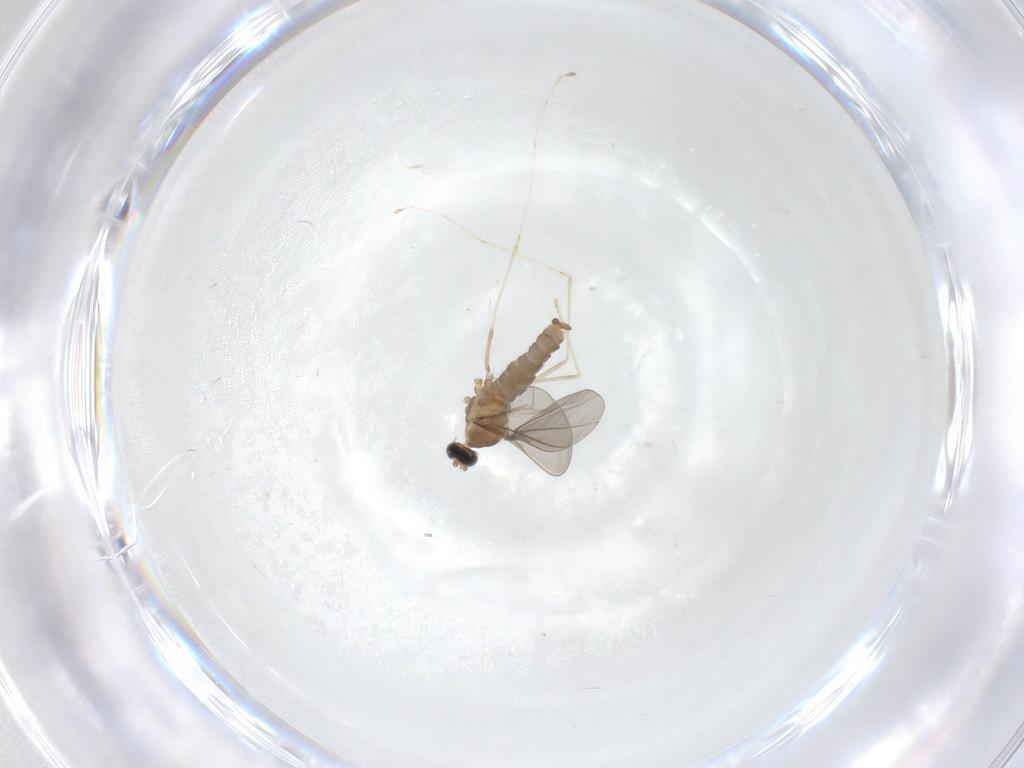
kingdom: Animalia
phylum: Arthropoda
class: Insecta
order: Diptera
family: Cecidomyiidae
